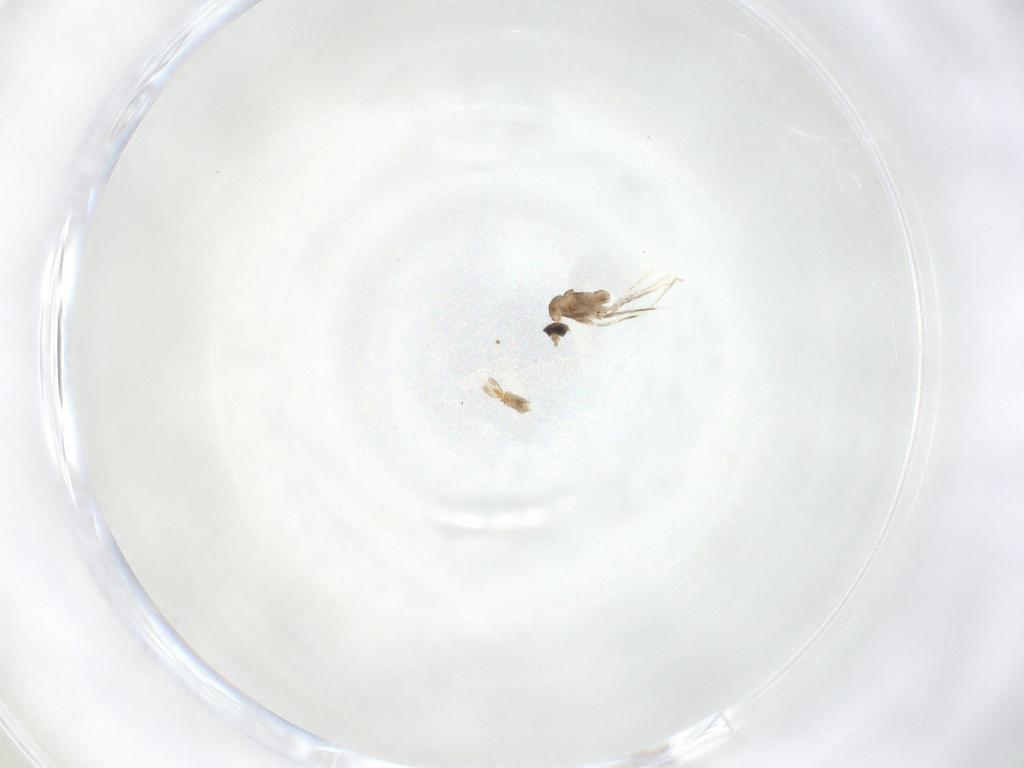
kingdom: Animalia
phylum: Arthropoda
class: Insecta
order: Diptera
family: Cecidomyiidae
